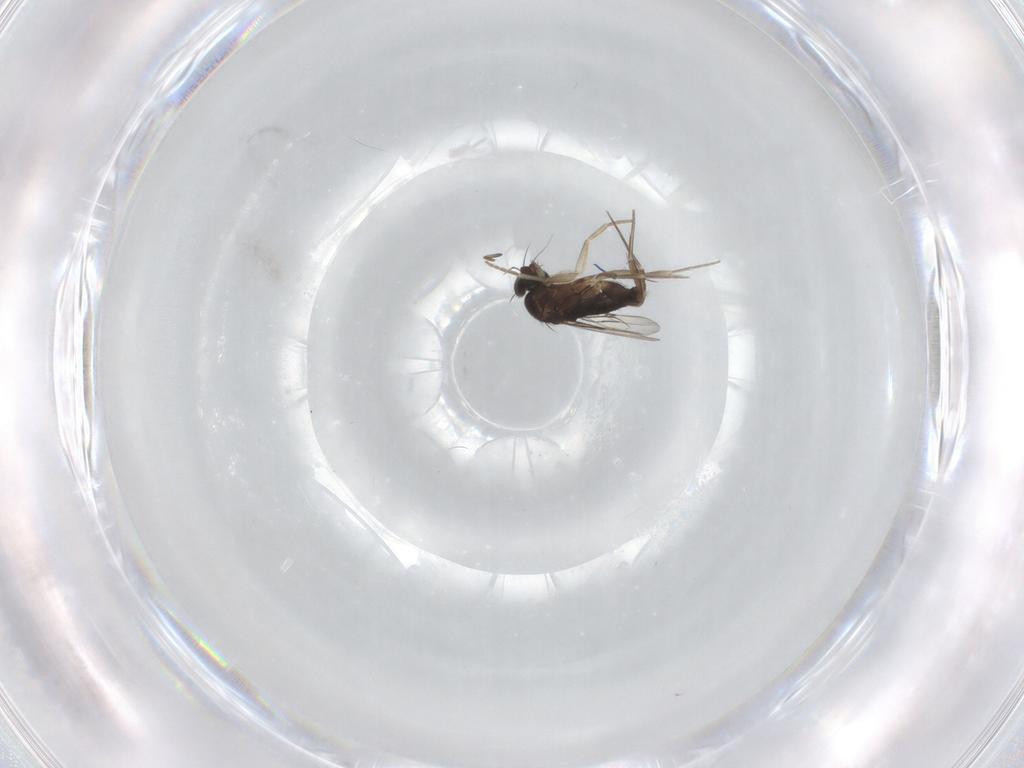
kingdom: Animalia
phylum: Arthropoda
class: Insecta
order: Diptera
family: Phoridae
